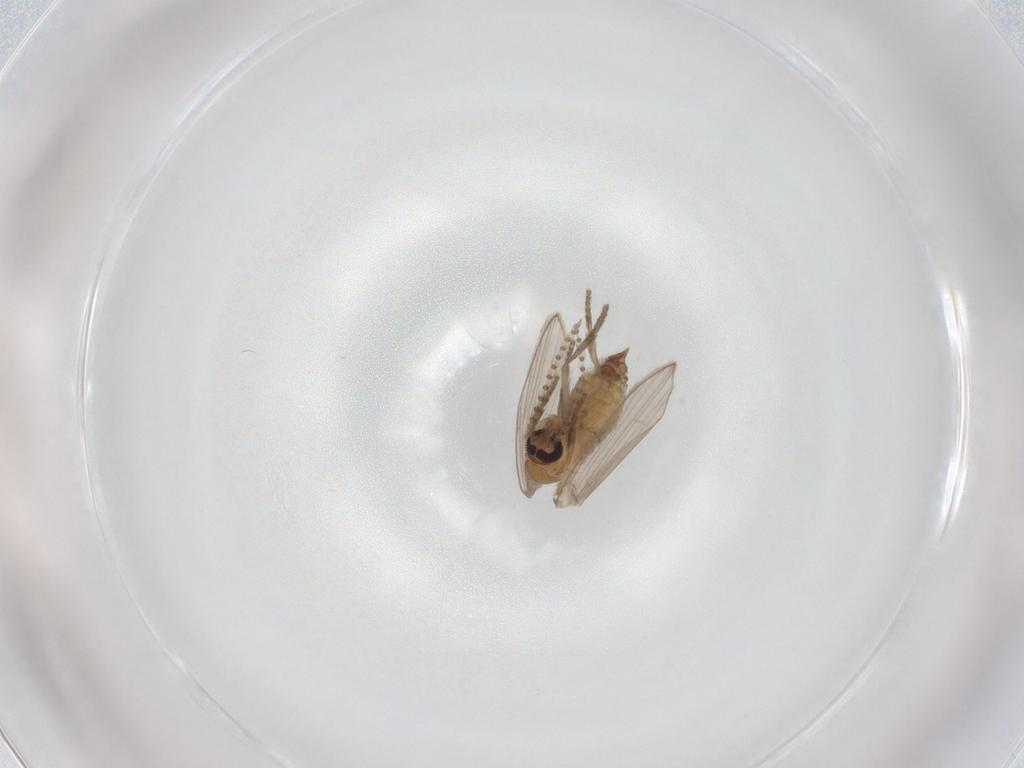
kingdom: Animalia
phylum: Arthropoda
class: Insecta
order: Diptera
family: Psychodidae
